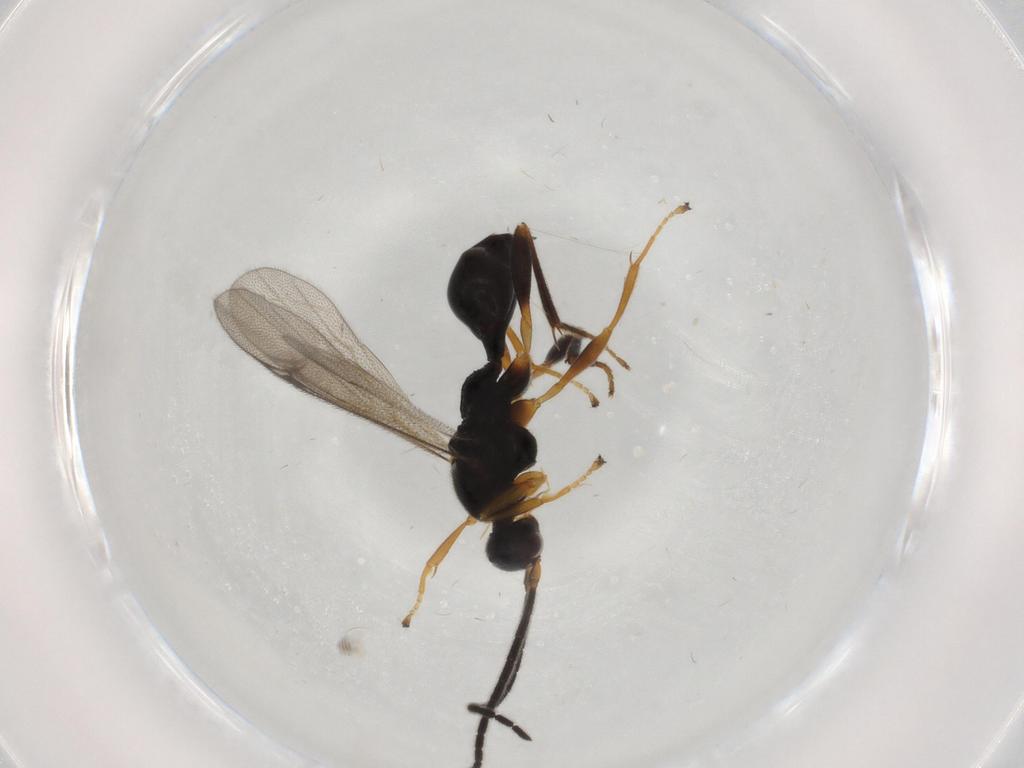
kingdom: Animalia
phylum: Arthropoda
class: Insecta
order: Hymenoptera
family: Proctotrupidae
